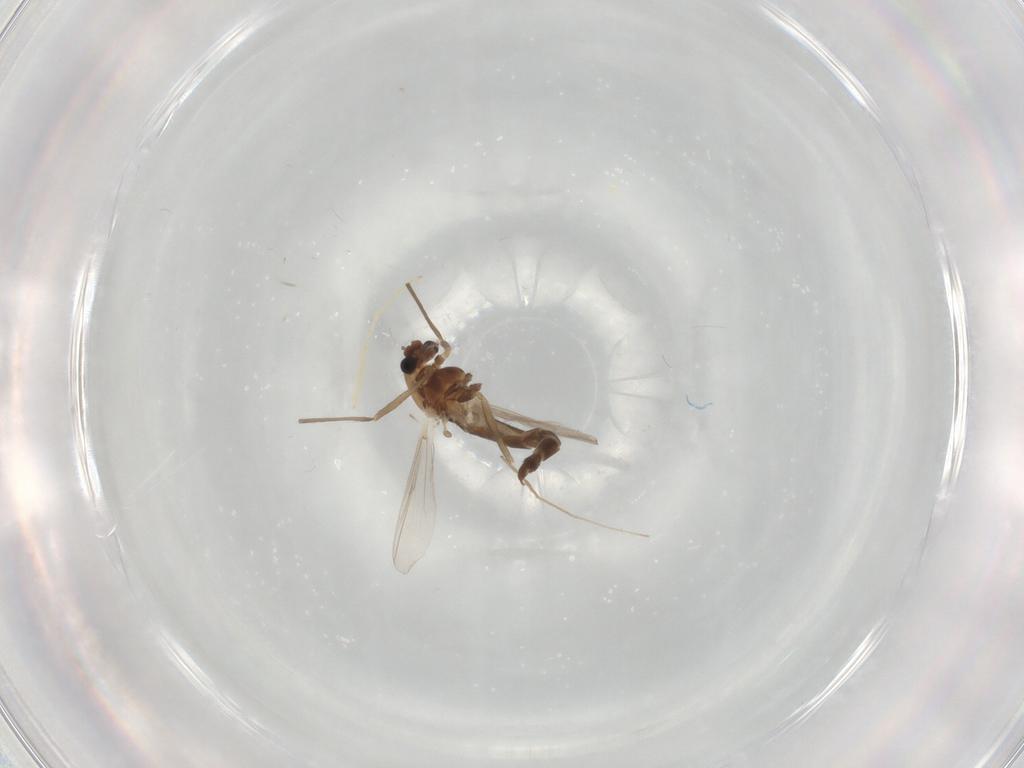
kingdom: Animalia
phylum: Arthropoda
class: Insecta
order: Diptera
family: Chironomidae
